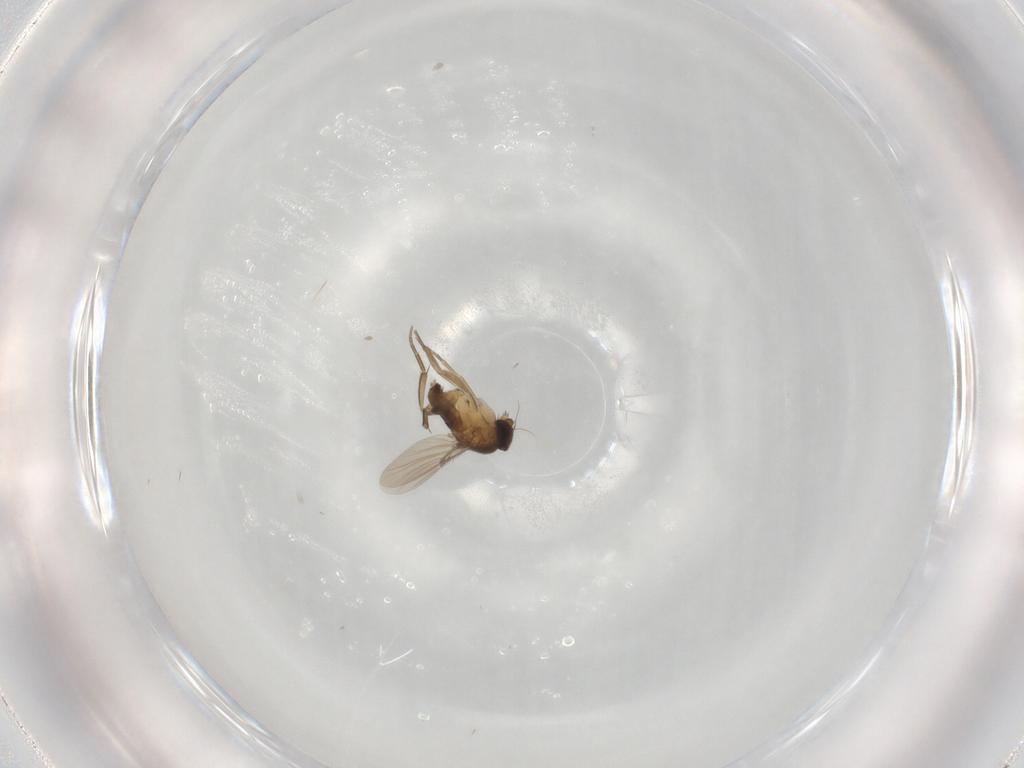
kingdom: Animalia
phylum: Arthropoda
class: Insecta
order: Diptera
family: Phoridae
